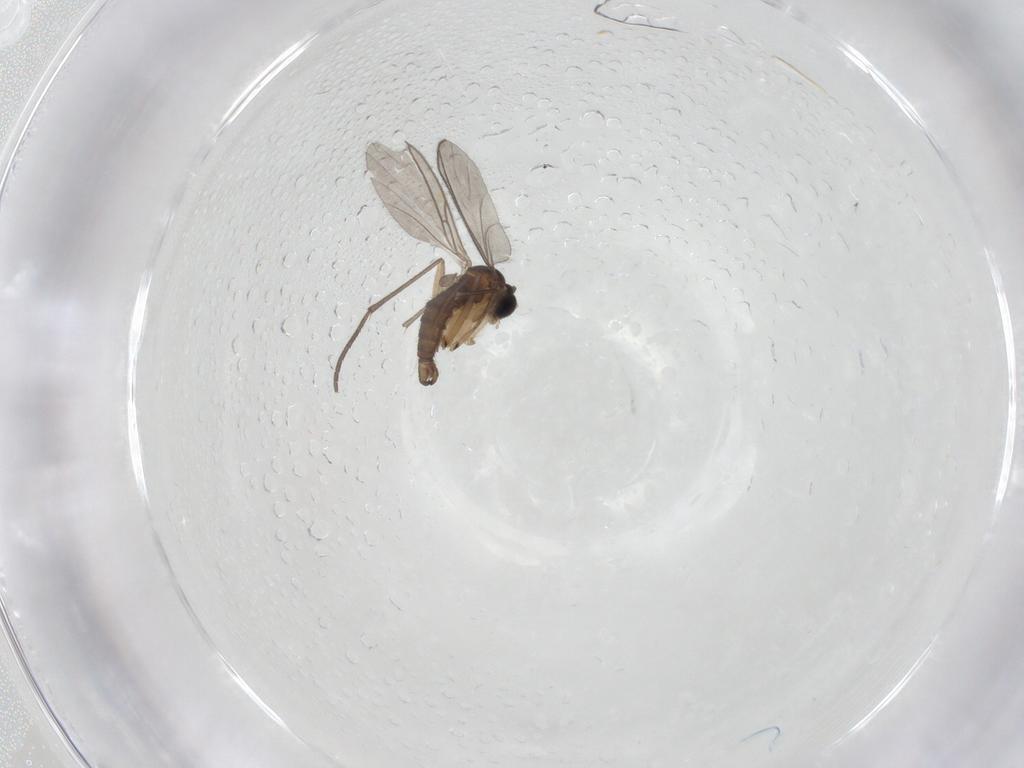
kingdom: Animalia
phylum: Arthropoda
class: Insecta
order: Diptera
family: Sciaridae
